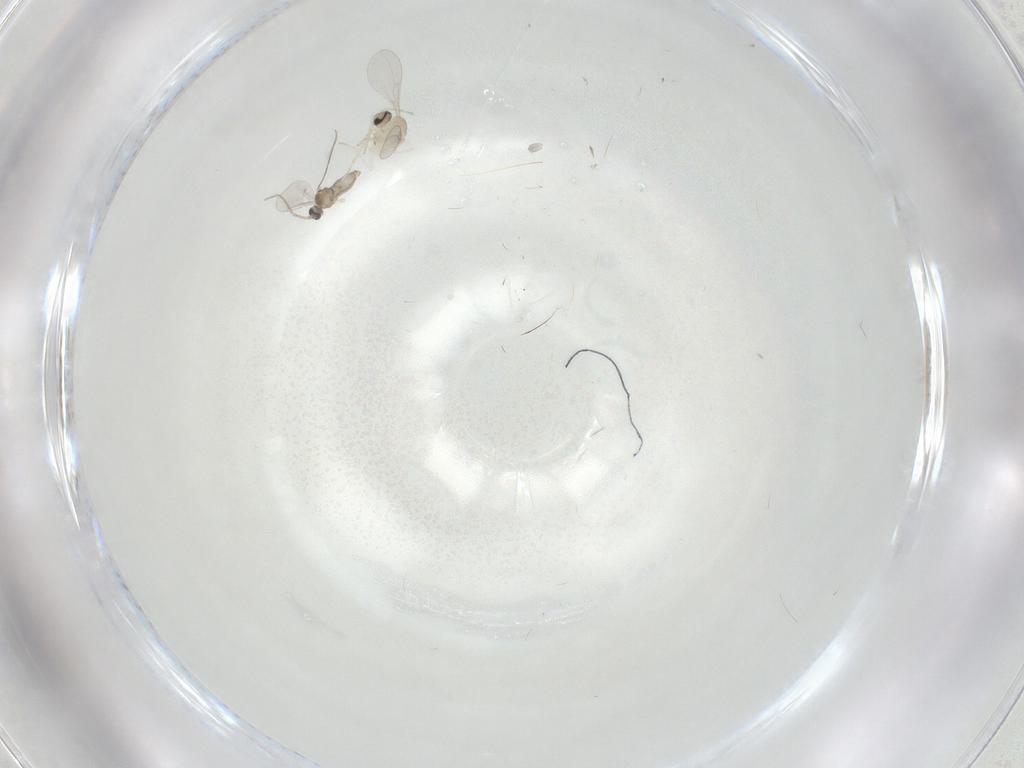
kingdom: Animalia
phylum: Arthropoda
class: Insecta
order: Diptera
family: Cecidomyiidae
